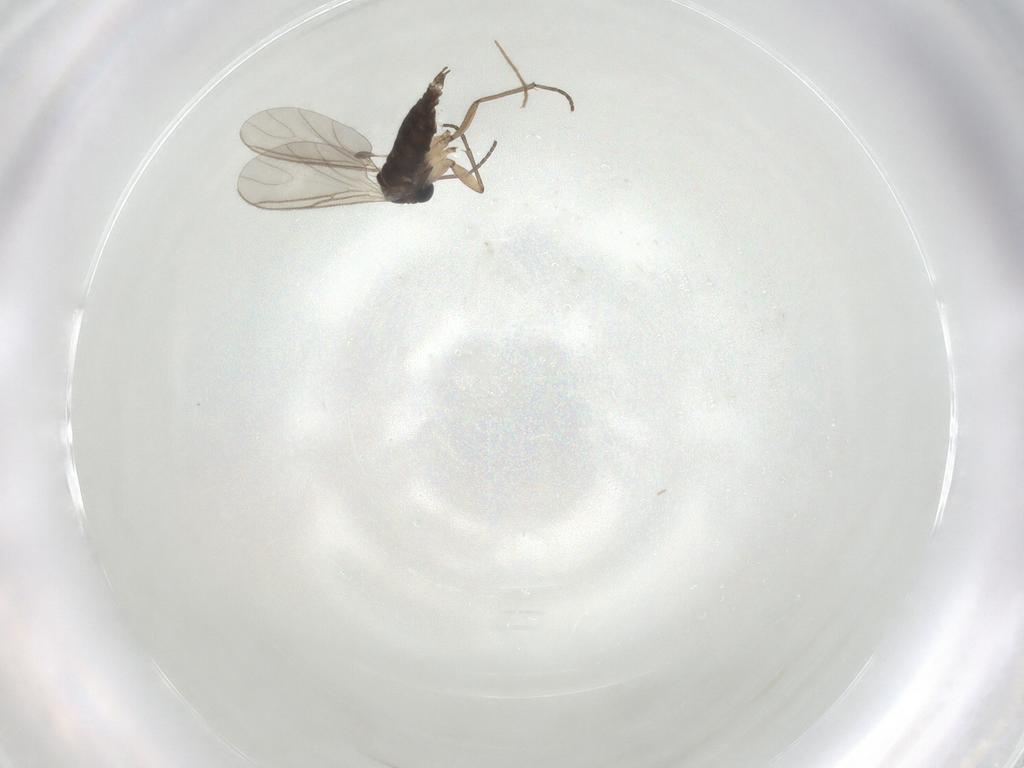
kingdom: Animalia
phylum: Arthropoda
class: Insecta
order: Diptera
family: Sciaridae
